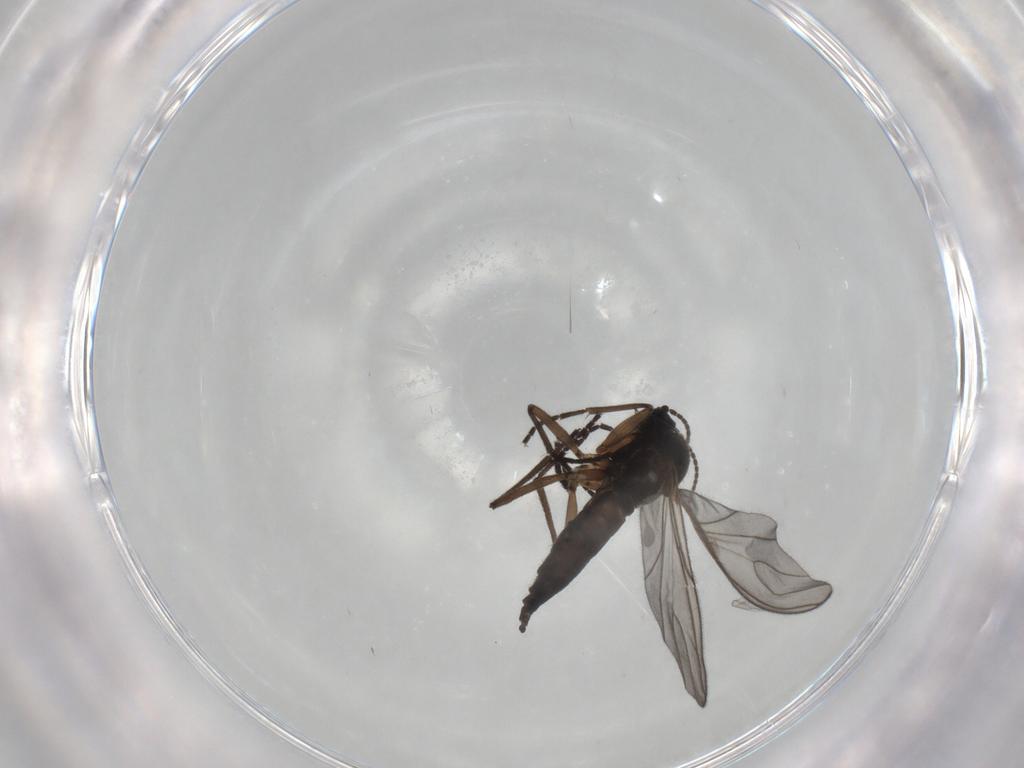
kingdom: Animalia
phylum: Arthropoda
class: Insecta
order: Diptera
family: Sciaridae
